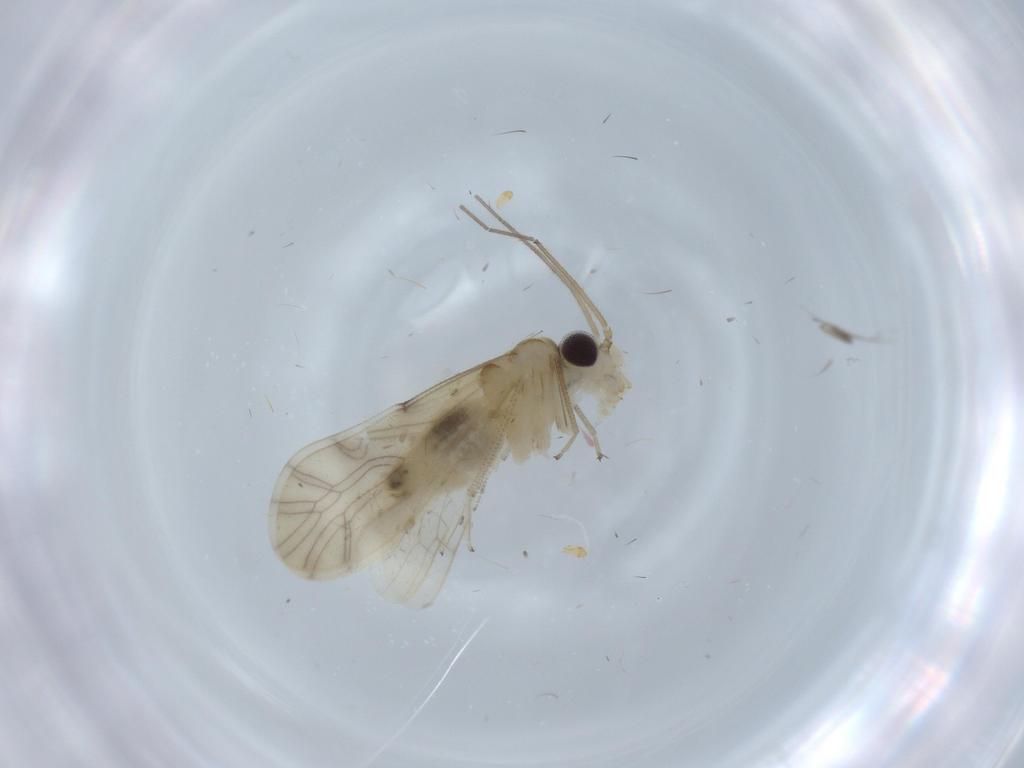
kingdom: Animalia
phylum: Arthropoda
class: Insecta
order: Psocodea
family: Caeciliusidae
